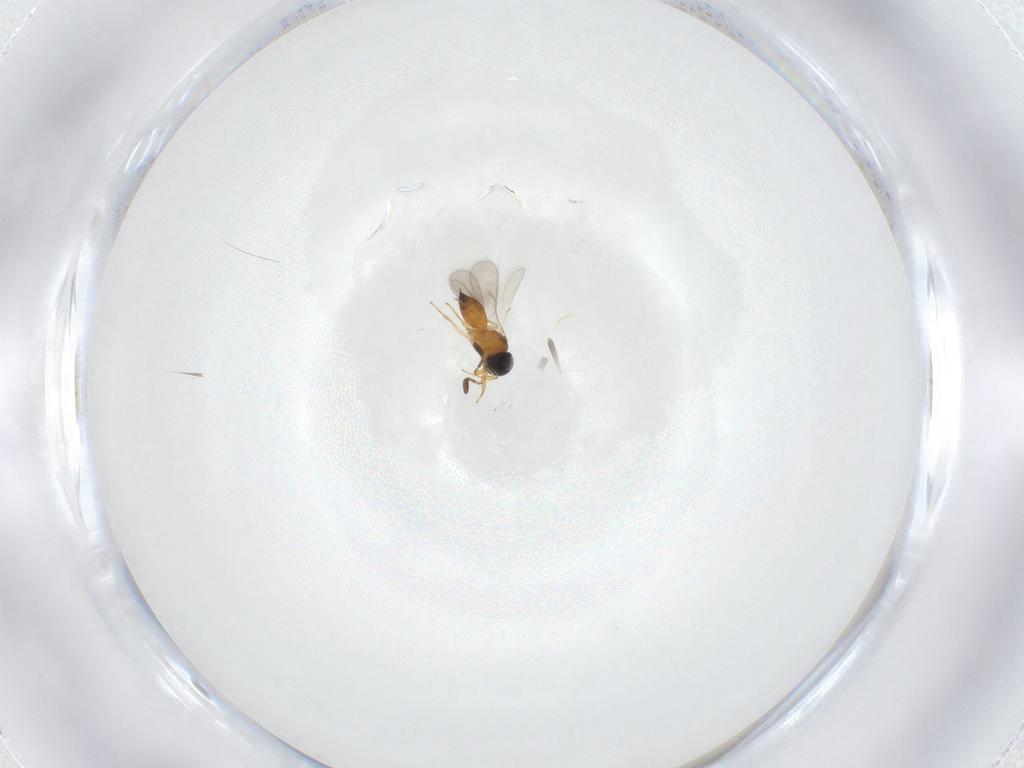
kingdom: Animalia
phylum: Arthropoda
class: Insecta
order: Hymenoptera
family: Scelionidae
